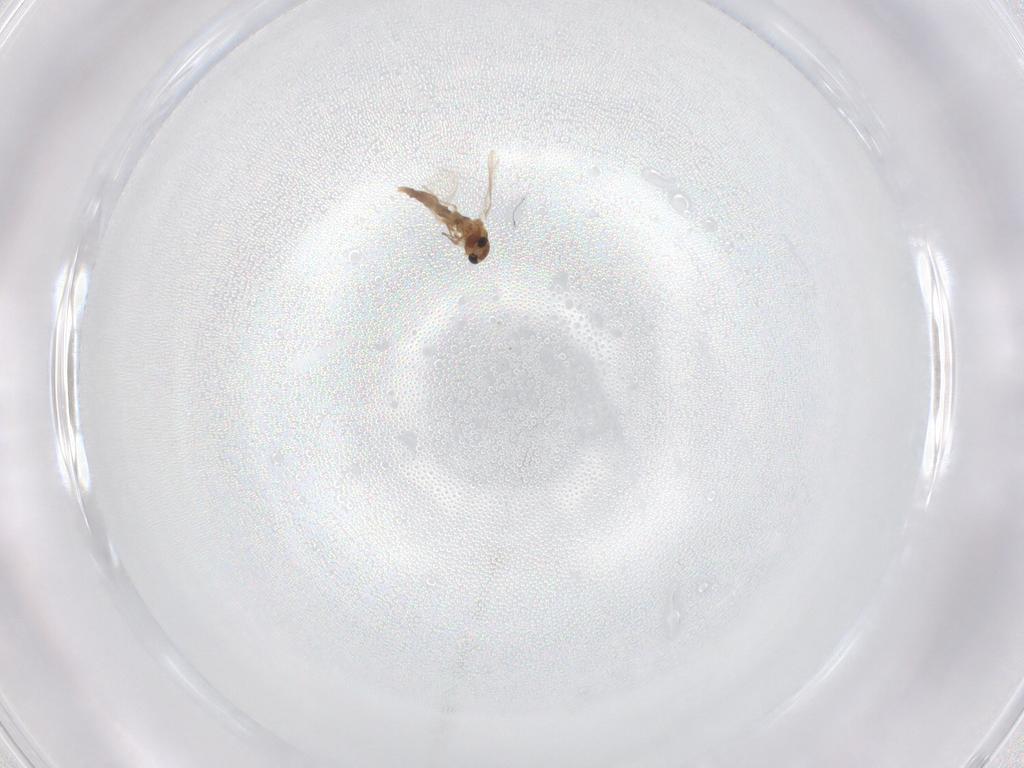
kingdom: Animalia
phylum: Arthropoda
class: Insecta
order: Diptera
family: Chironomidae
